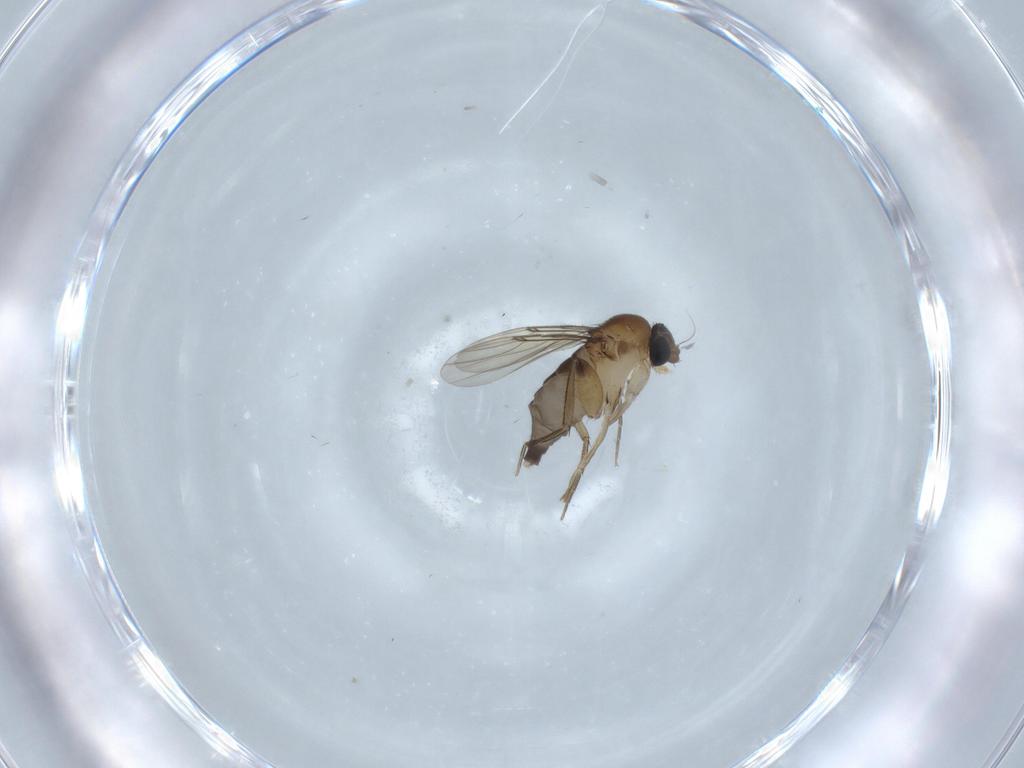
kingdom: Animalia
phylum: Arthropoda
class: Insecta
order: Diptera
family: Phoridae
